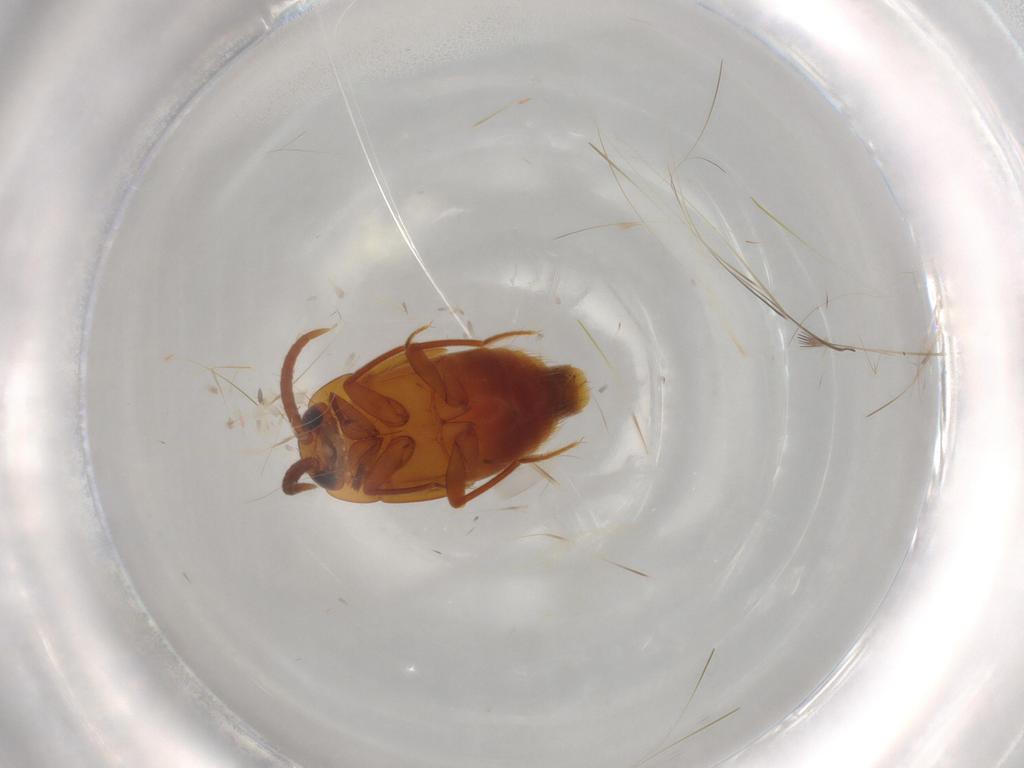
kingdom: Animalia
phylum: Arthropoda
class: Insecta
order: Coleoptera
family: Staphylinidae
